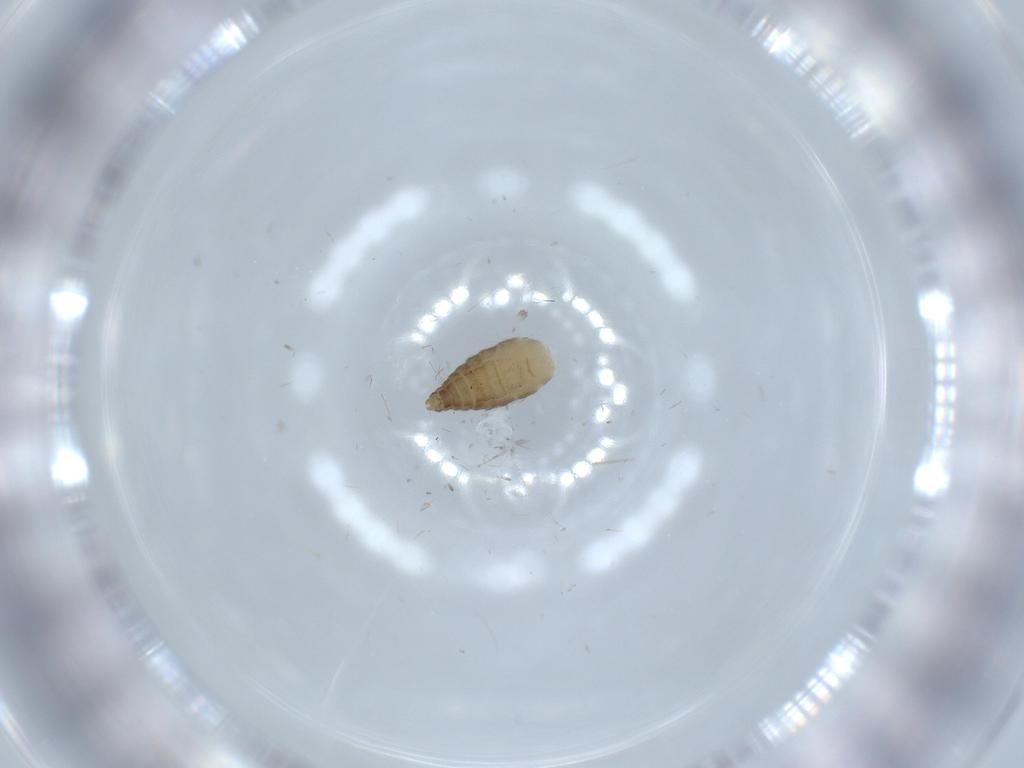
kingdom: Animalia
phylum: Arthropoda
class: Insecta
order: Diptera
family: Ceratopogonidae
